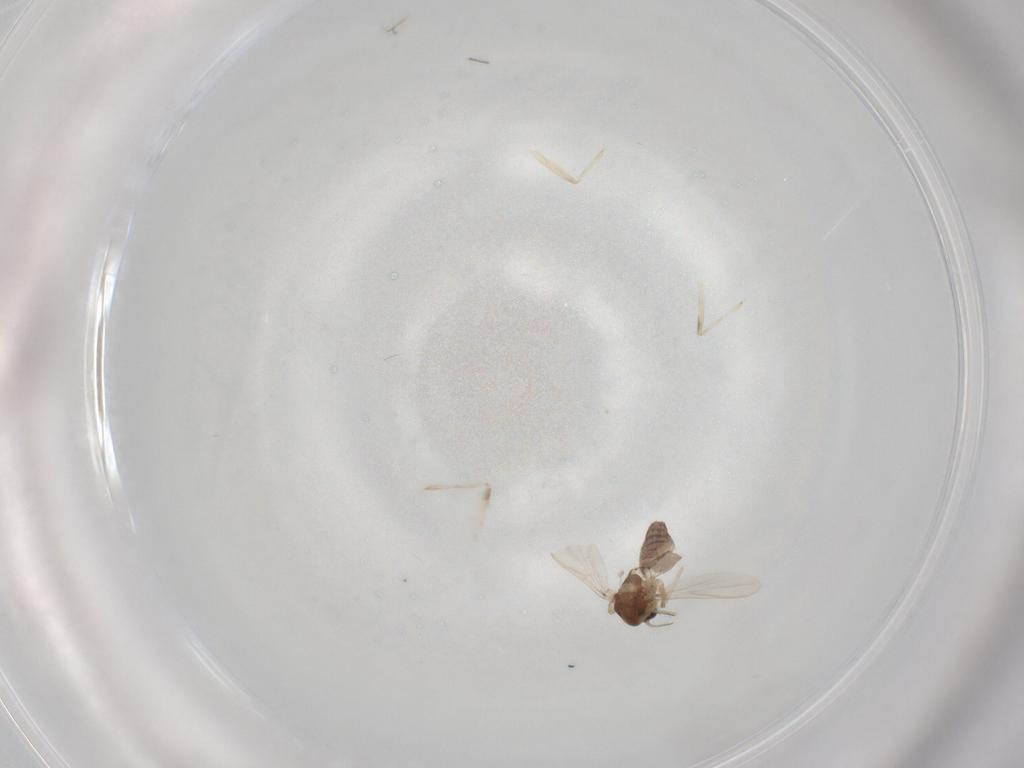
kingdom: Animalia
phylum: Arthropoda
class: Insecta
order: Diptera
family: Chironomidae
